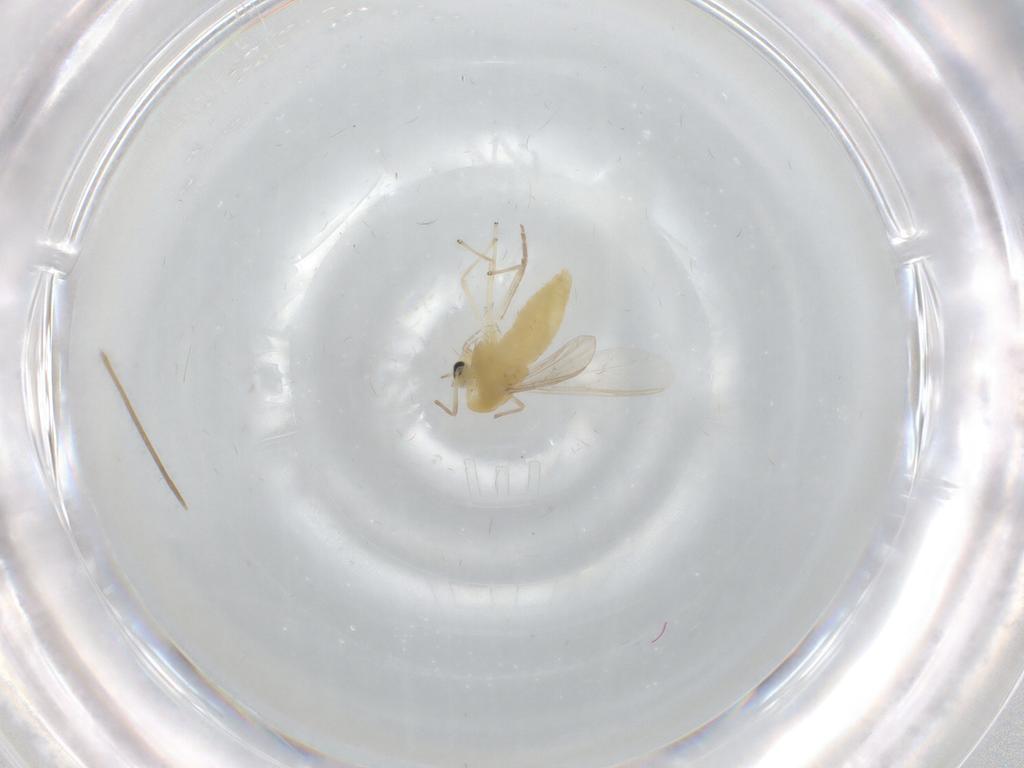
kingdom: Animalia
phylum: Arthropoda
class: Insecta
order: Diptera
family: Chironomidae
